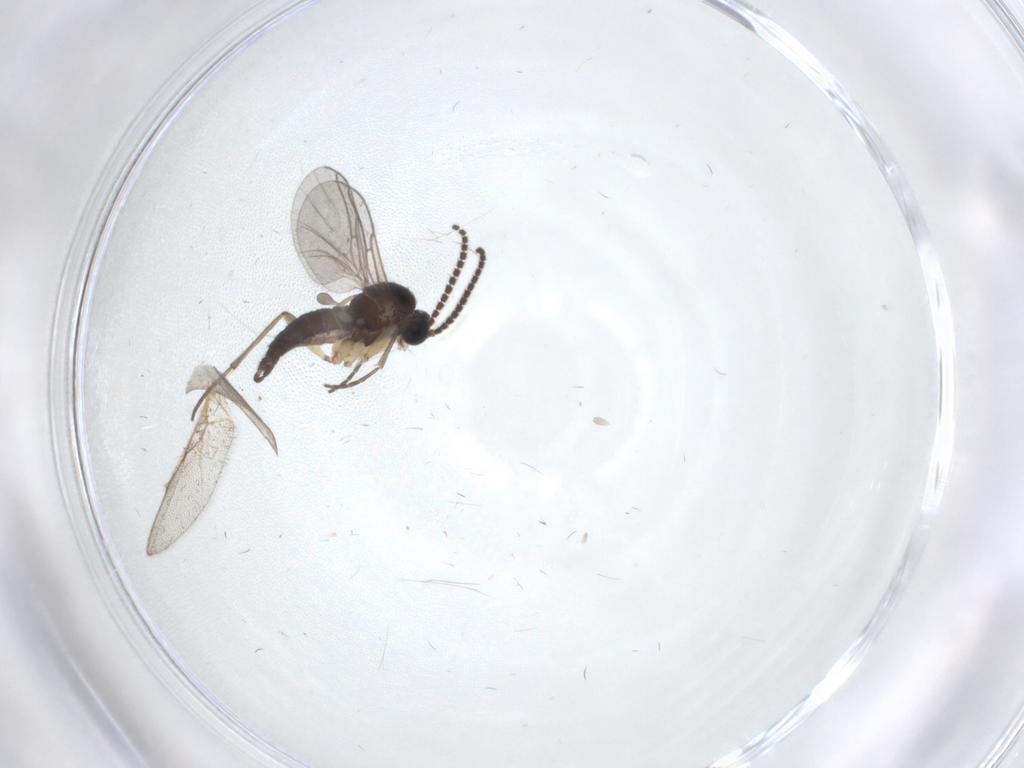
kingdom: Animalia
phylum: Arthropoda
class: Insecta
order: Diptera
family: Sciaridae
